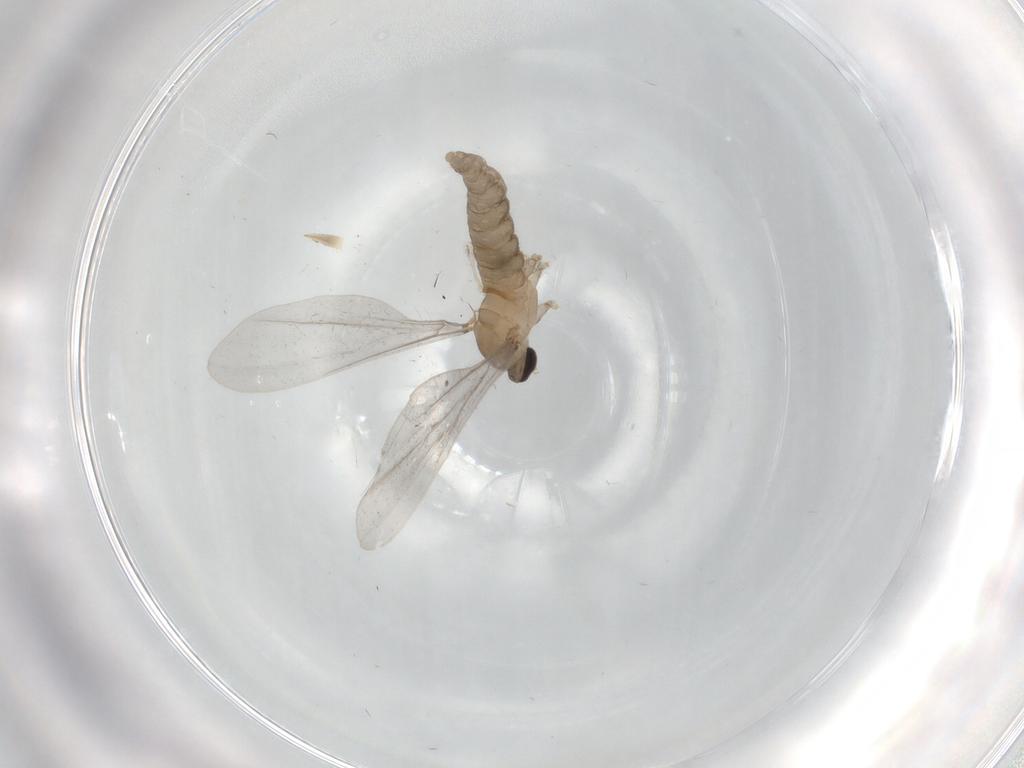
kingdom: Animalia
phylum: Arthropoda
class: Insecta
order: Diptera
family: Cecidomyiidae
